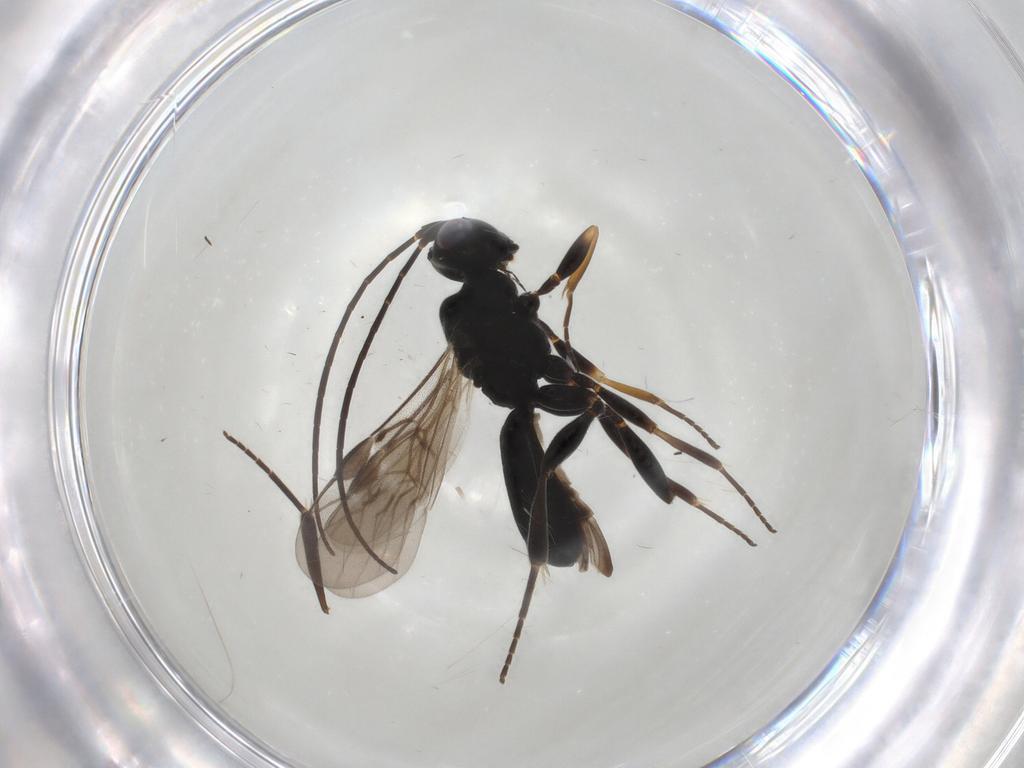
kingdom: Animalia
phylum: Arthropoda
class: Insecta
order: Hymenoptera
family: Braconidae
